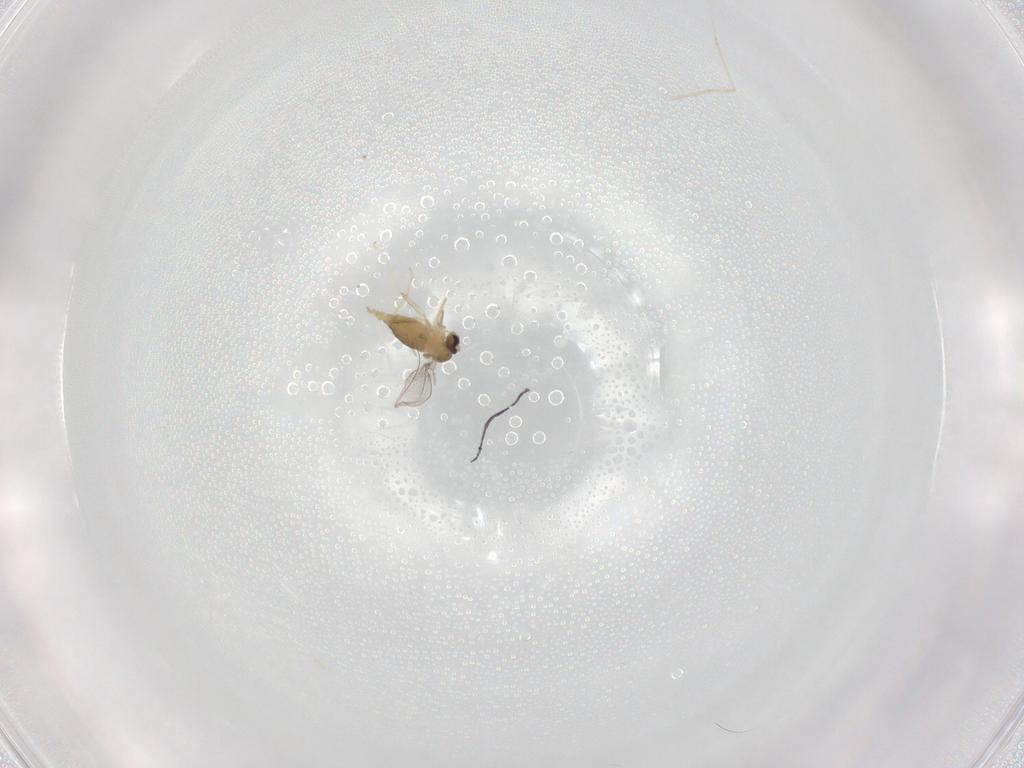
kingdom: Animalia
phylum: Arthropoda
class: Insecta
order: Diptera
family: Cecidomyiidae
